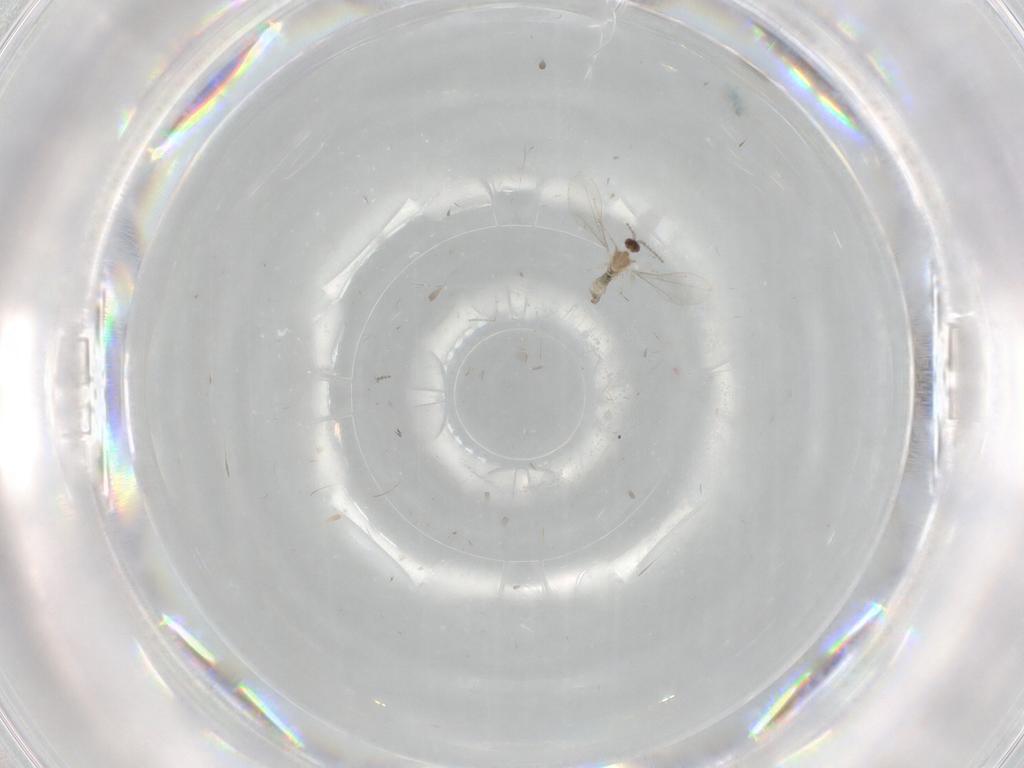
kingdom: Animalia
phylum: Arthropoda
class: Insecta
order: Diptera
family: Cecidomyiidae
